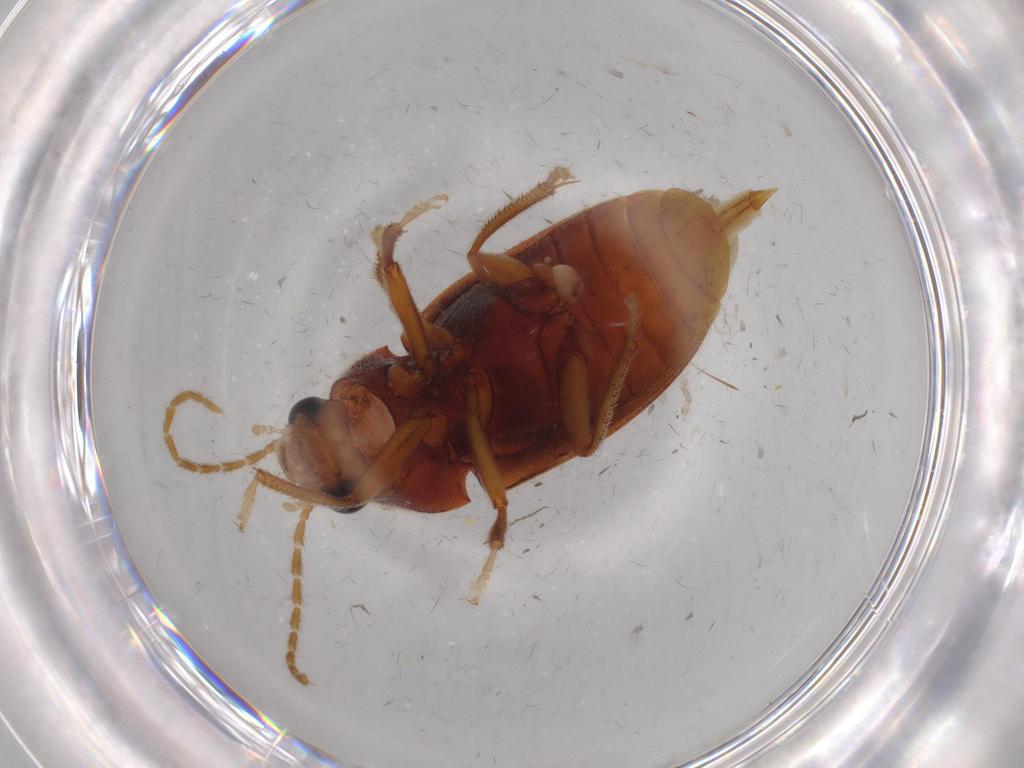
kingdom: Animalia
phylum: Arthropoda
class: Insecta
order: Coleoptera
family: Ptilodactylidae
